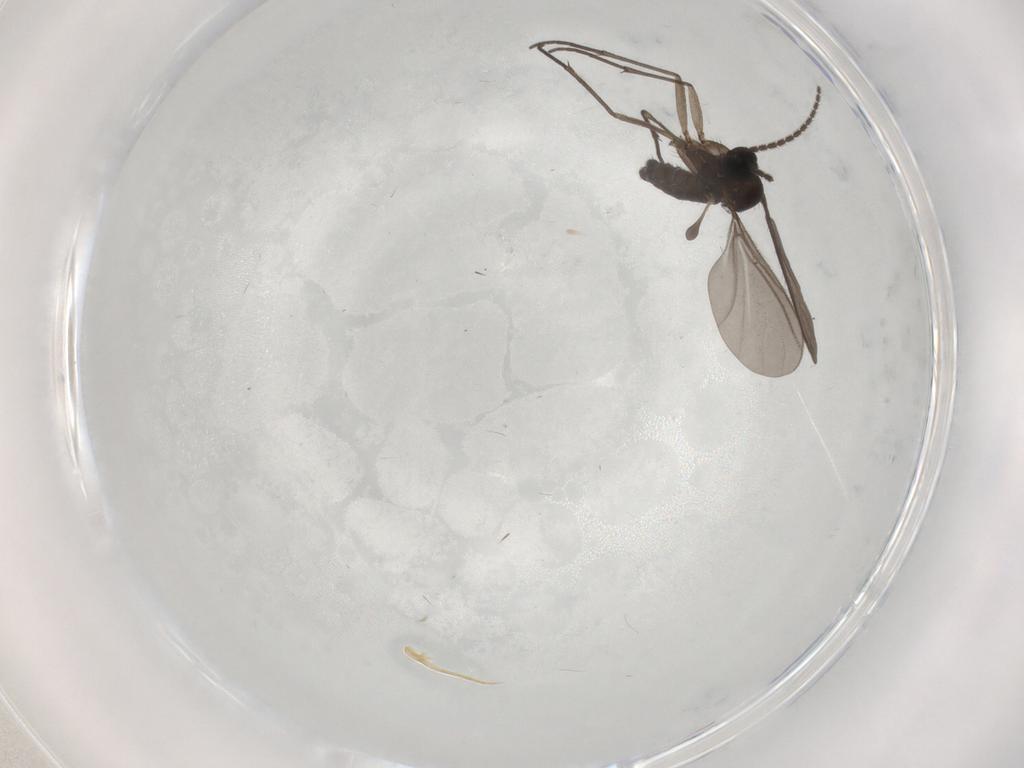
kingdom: Animalia
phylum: Arthropoda
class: Insecta
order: Diptera
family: Sciaridae
